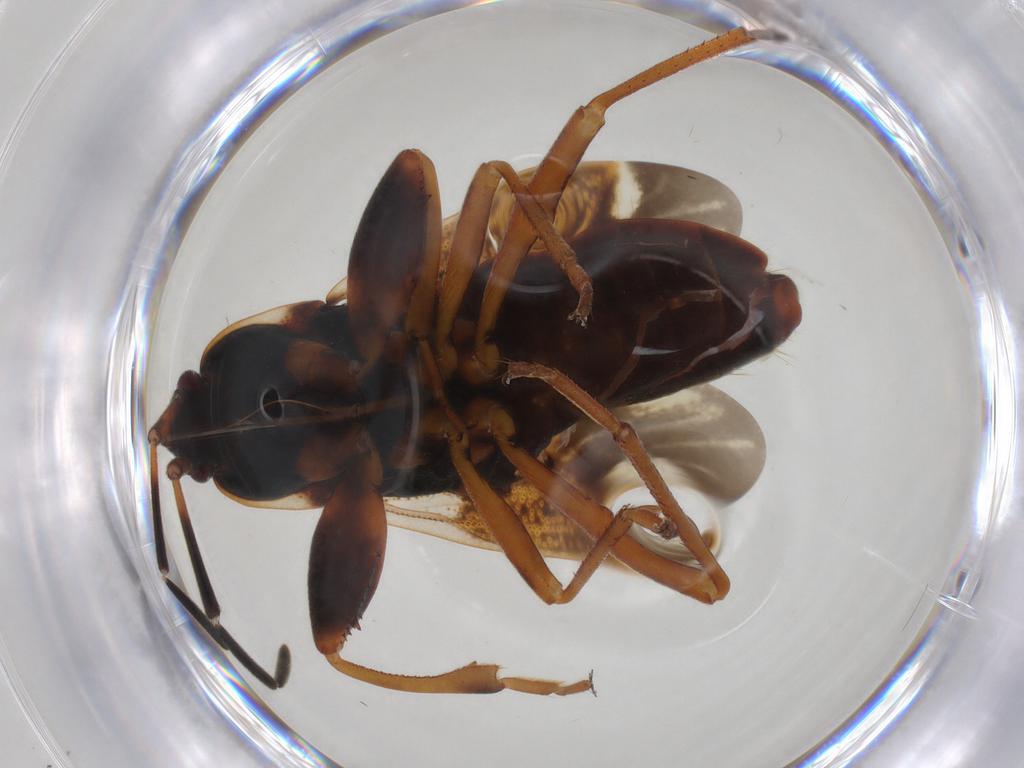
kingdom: Animalia
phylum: Arthropoda
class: Insecta
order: Hemiptera
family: Rhyparochromidae
